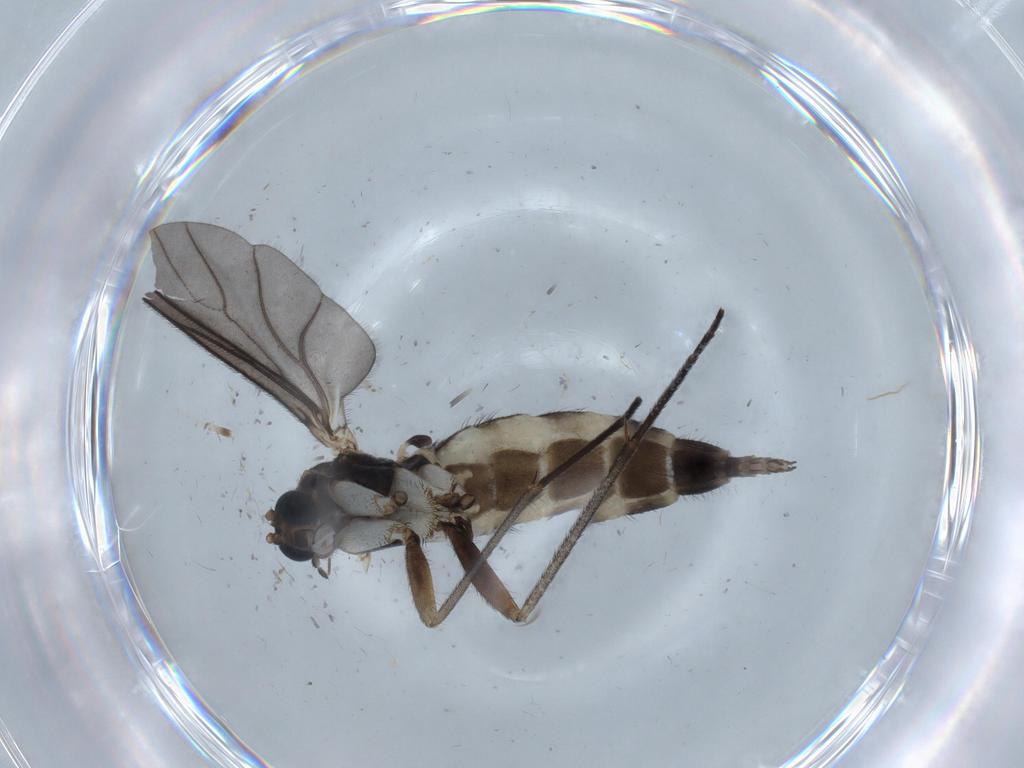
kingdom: Animalia
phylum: Arthropoda
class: Insecta
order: Diptera
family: Sciaridae
